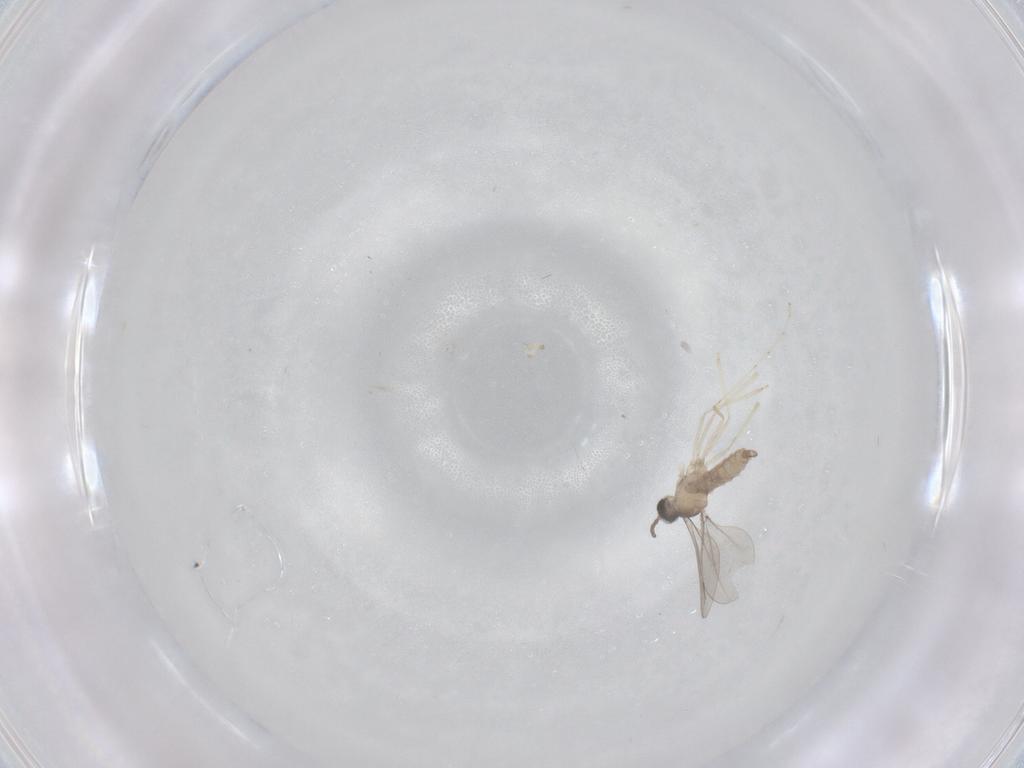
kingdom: Animalia
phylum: Arthropoda
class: Insecta
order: Diptera
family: Cecidomyiidae
